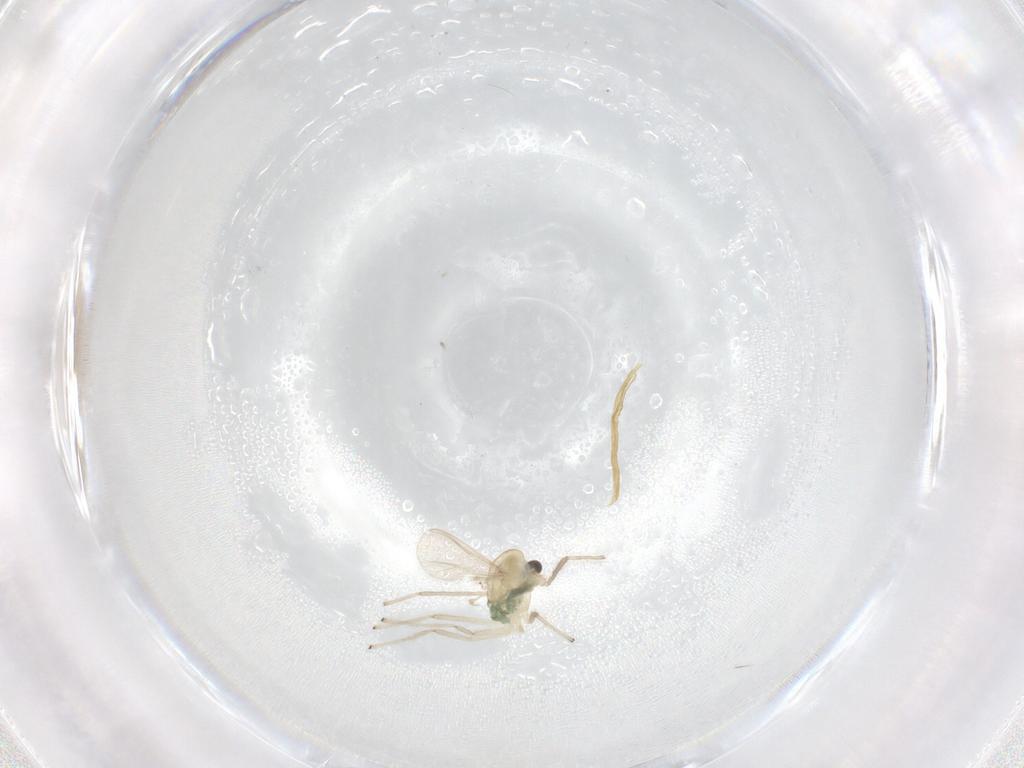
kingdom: Animalia
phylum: Arthropoda
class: Insecta
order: Diptera
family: Chironomidae
